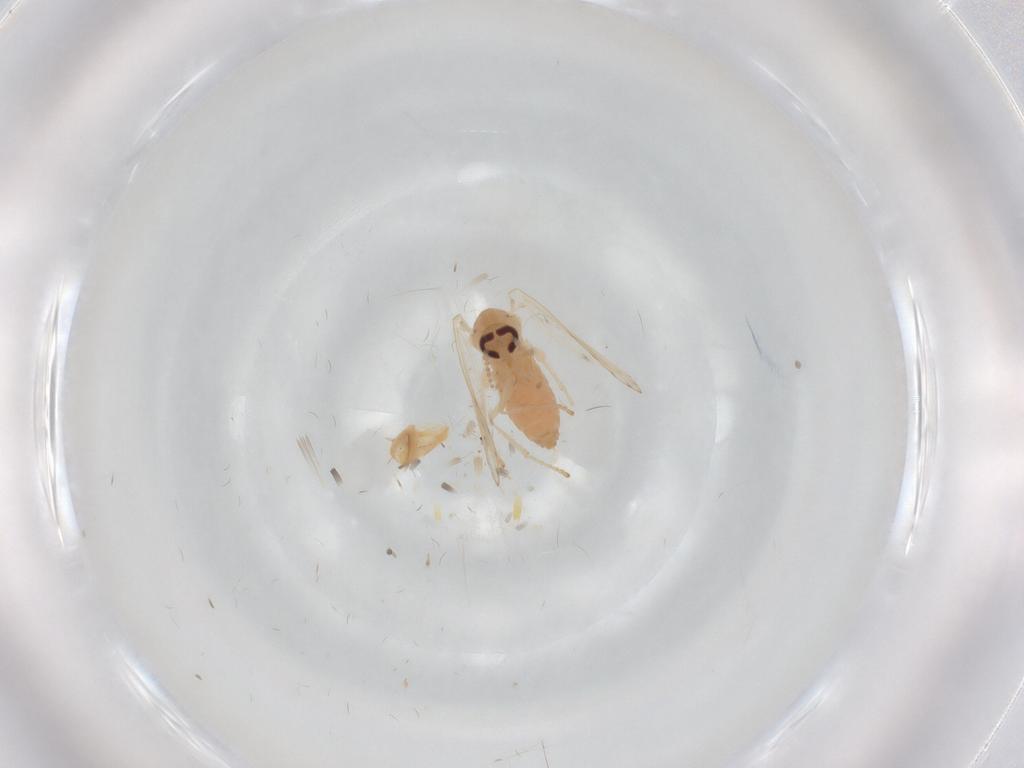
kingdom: Animalia
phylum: Arthropoda
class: Insecta
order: Diptera
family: Psychodidae
